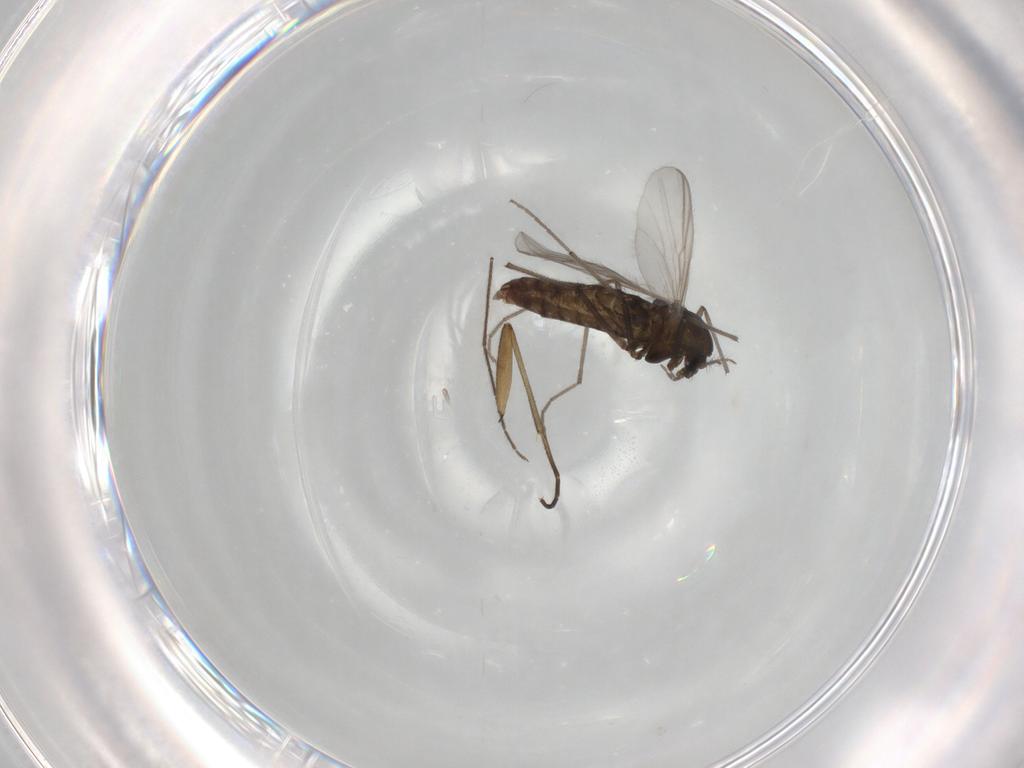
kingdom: Animalia
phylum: Arthropoda
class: Insecta
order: Diptera
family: Chironomidae
